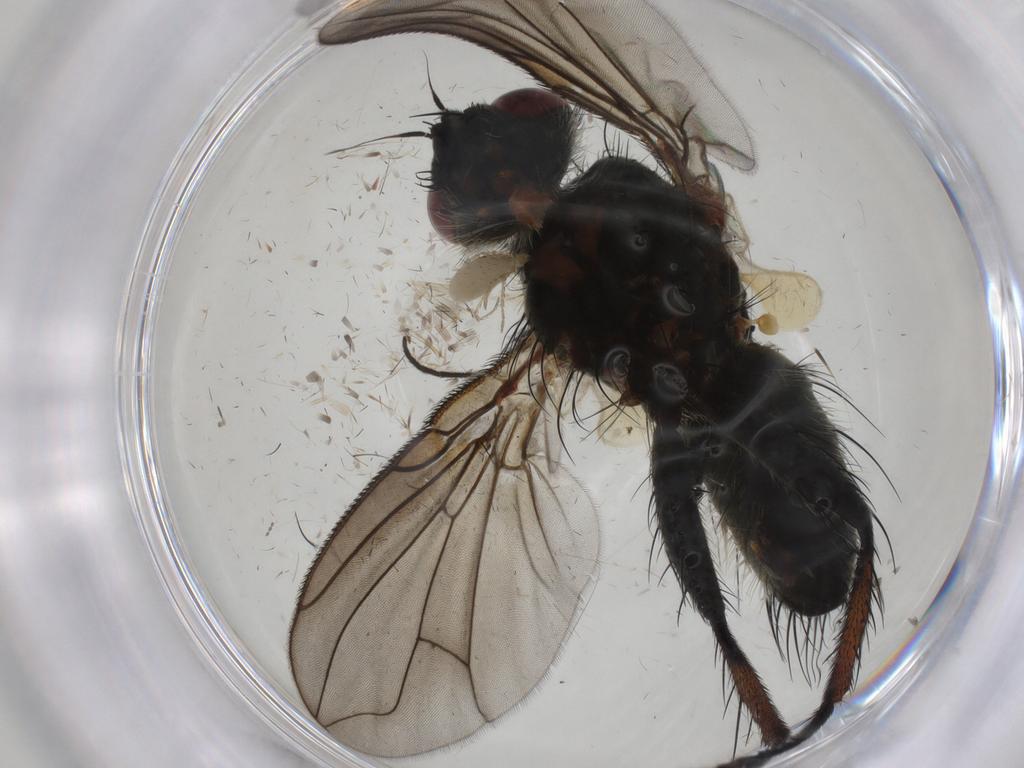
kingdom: Animalia
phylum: Arthropoda
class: Insecta
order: Diptera
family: Tachinidae
